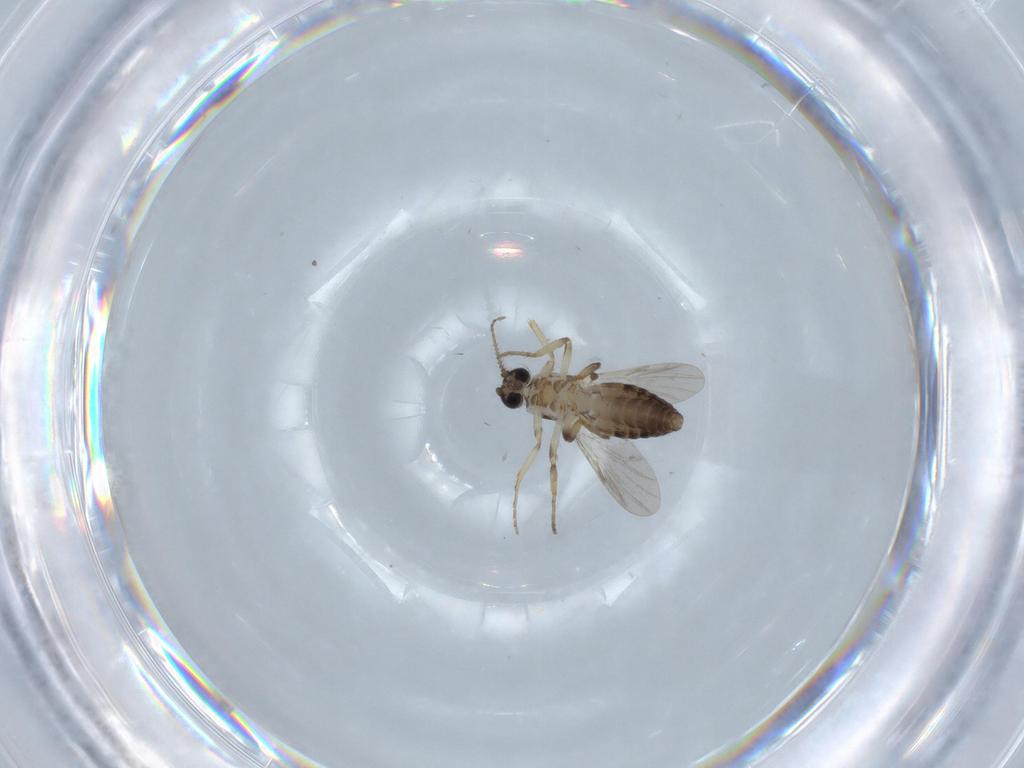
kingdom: Animalia
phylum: Arthropoda
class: Insecta
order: Diptera
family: Ceratopogonidae
